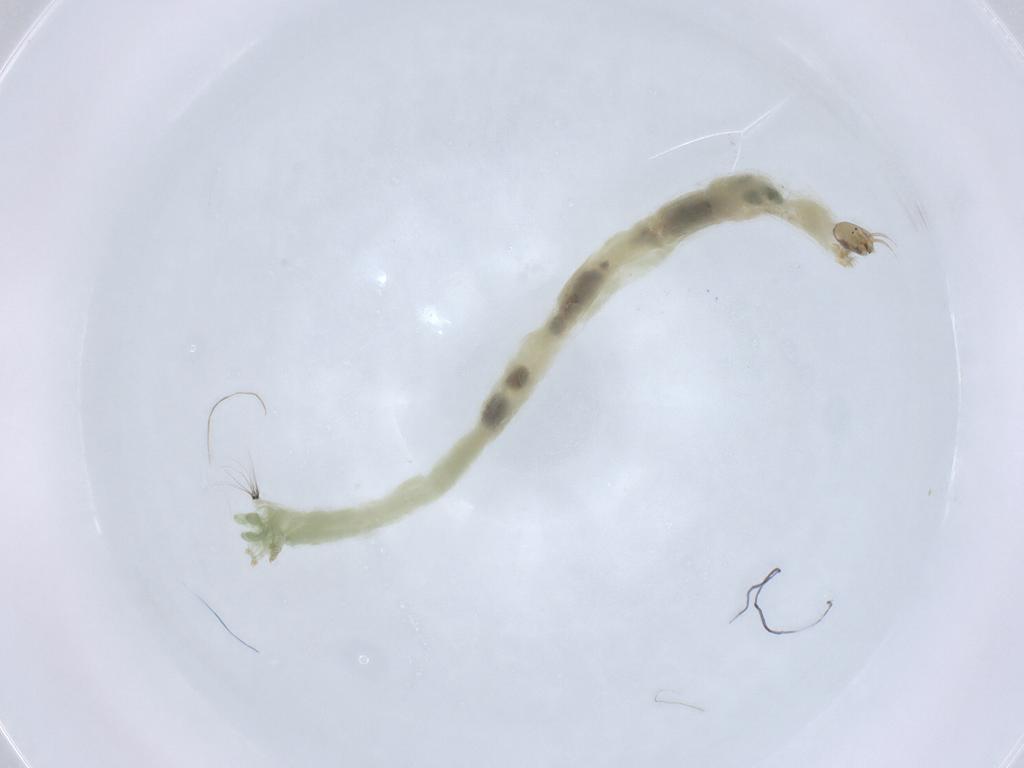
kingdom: Animalia
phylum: Arthropoda
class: Insecta
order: Diptera
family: Chironomidae
